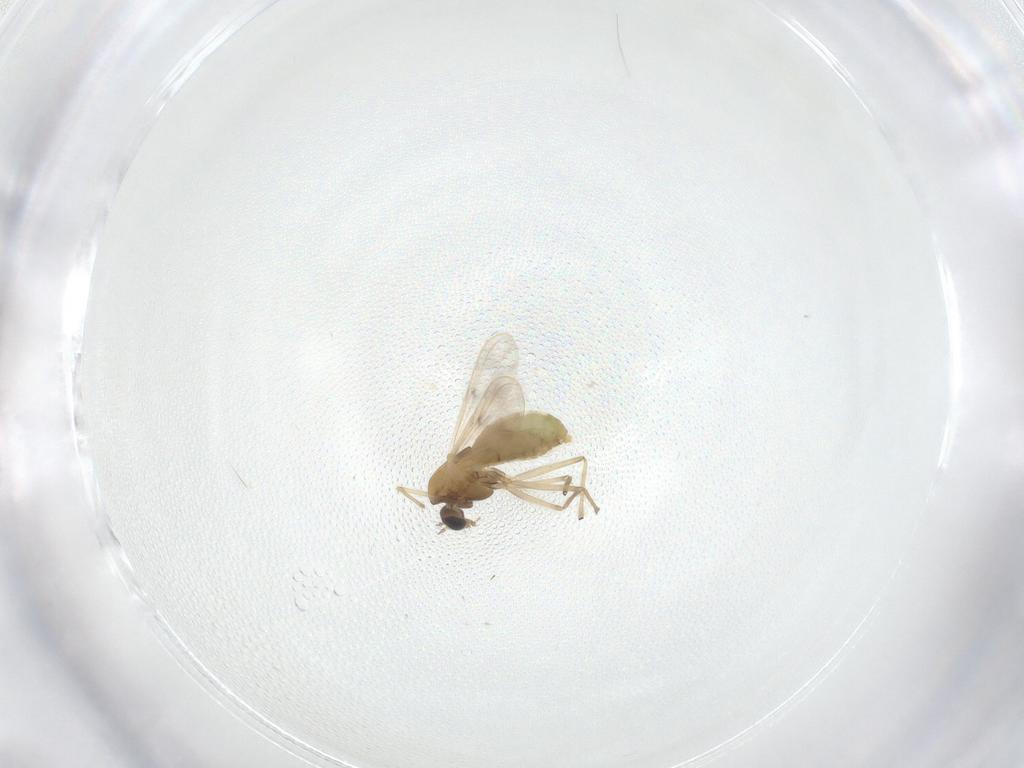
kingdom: Animalia
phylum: Arthropoda
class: Insecta
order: Diptera
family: Chironomidae
